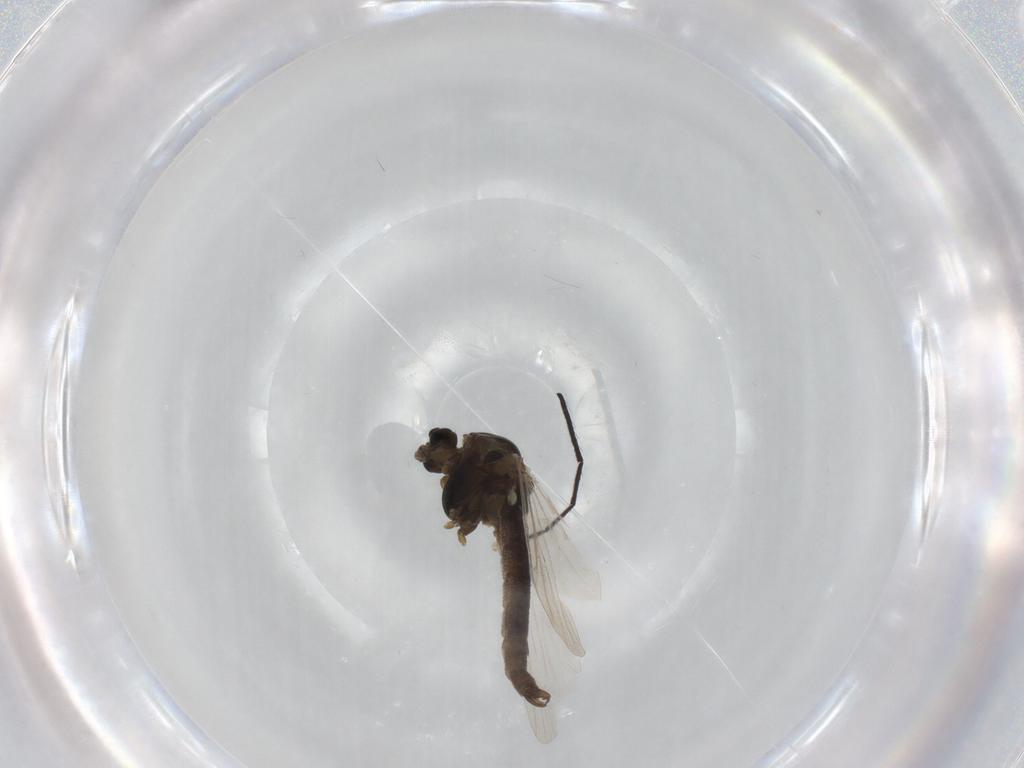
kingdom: Animalia
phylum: Arthropoda
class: Insecta
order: Diptera
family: Chironomidae
